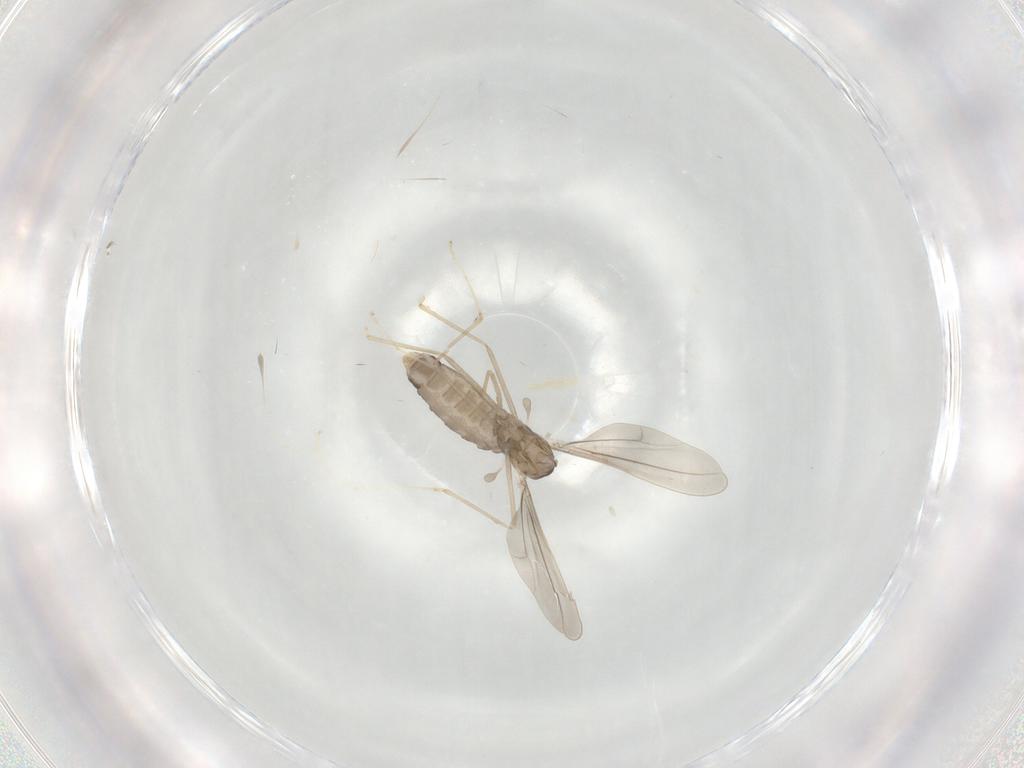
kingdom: Animalia
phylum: Arthropoda
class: Insecta
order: Diptera
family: Cecidomyiidae
